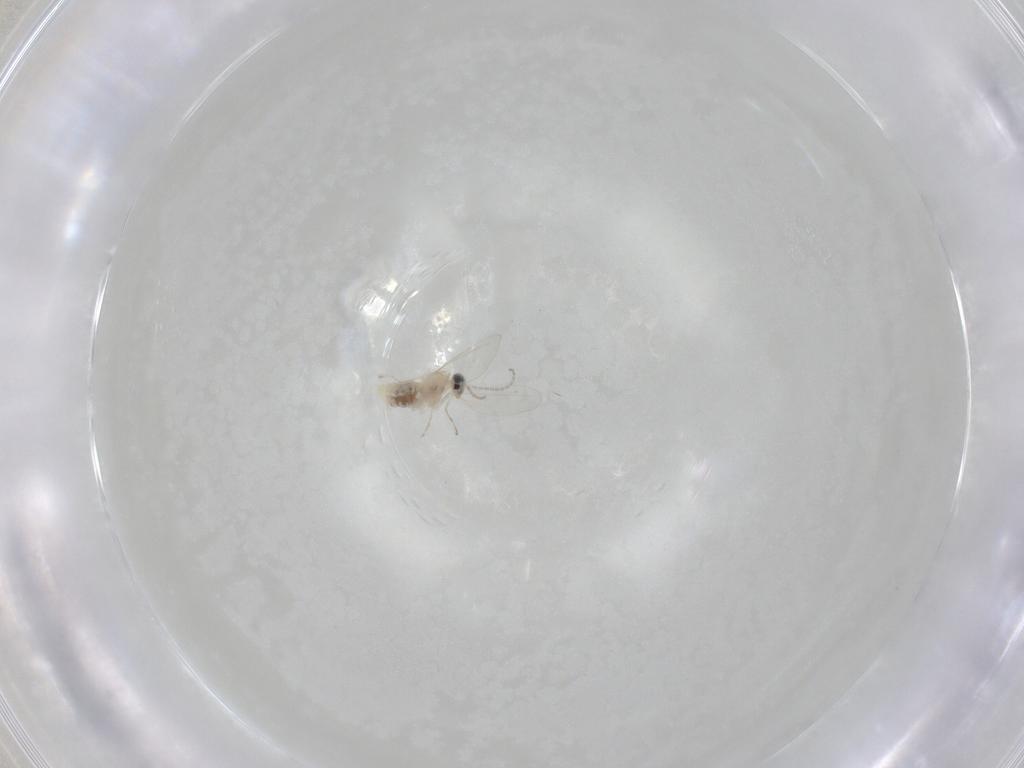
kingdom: Animalia
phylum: Arthropoda
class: Insecta
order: Diptera
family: Cecidomyiidae
